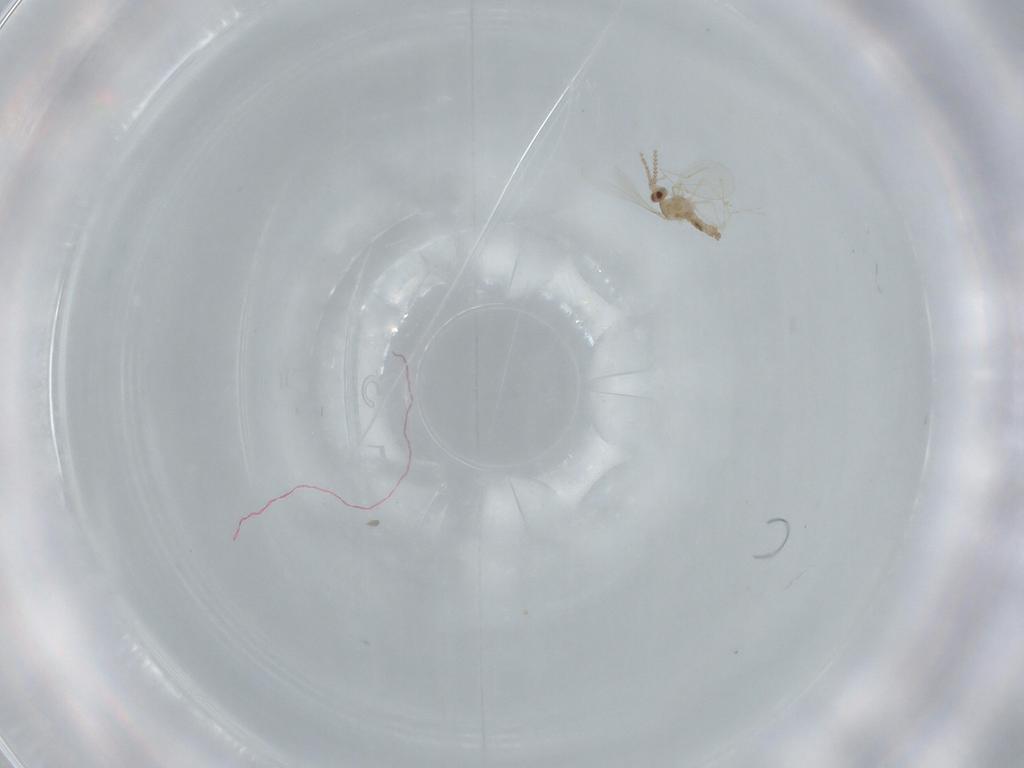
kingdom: Animalia
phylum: Arthropoda
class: Insecta
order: Diptera
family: Cecidomyiidae
